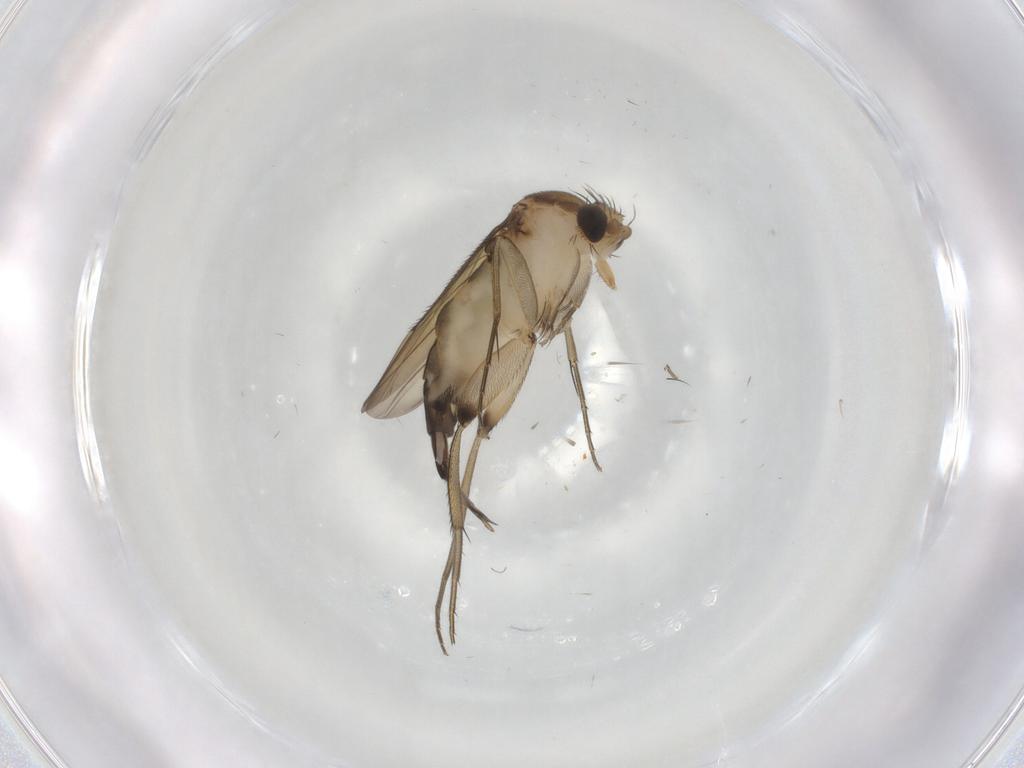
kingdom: Animalia
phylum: Arthropoda
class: Insecta
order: Diptera
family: Phoridae
